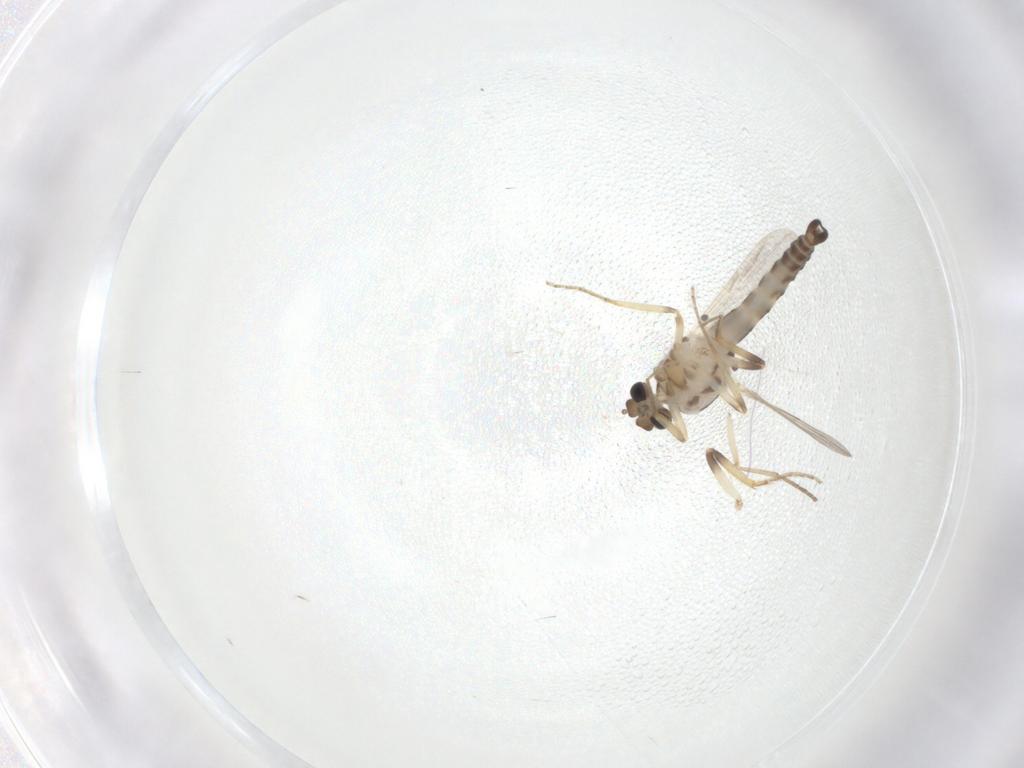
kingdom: Animalia
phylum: Arthropoda
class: Insecta
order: Diptera
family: Ceratopogonidae
